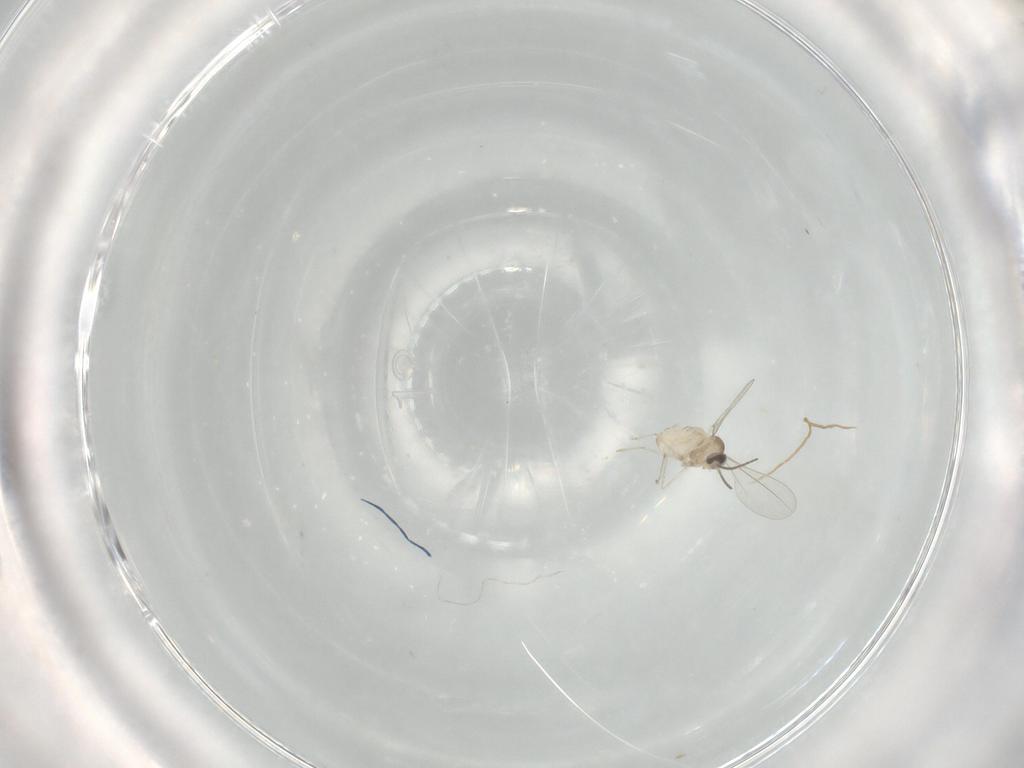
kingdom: Animalia
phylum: Arthropoda
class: Insecta
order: Diptera
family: Cecidomyiidae
